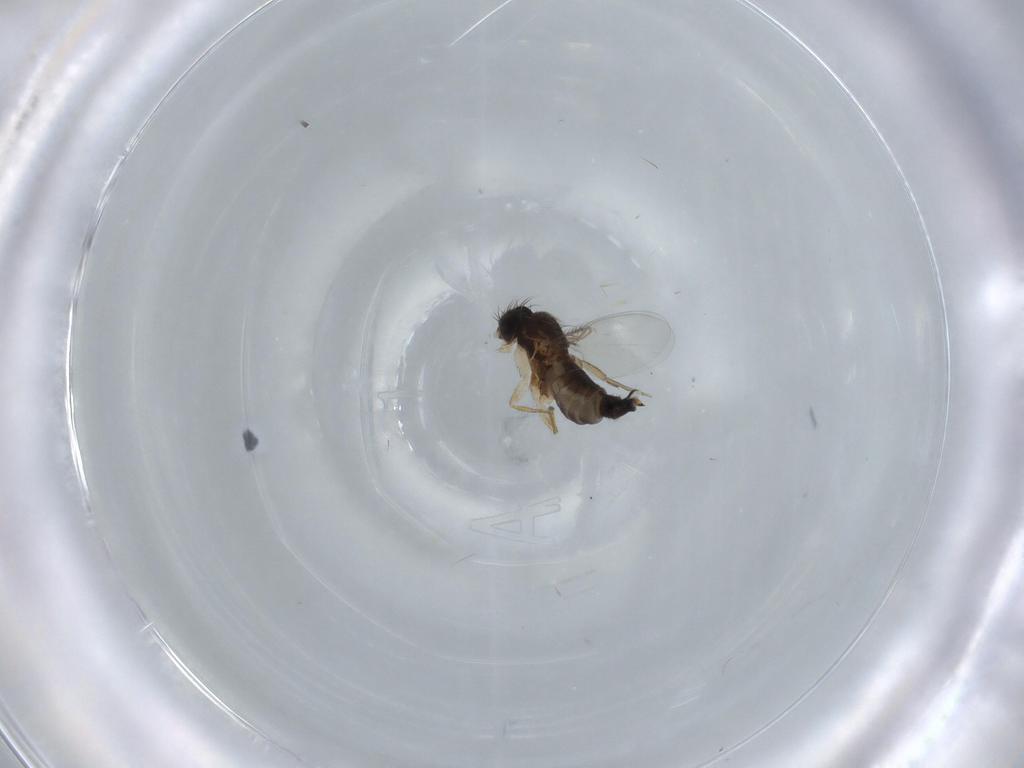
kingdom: Animalia
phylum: Arthropoda
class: Insecta
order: Diptera
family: Phoridae
